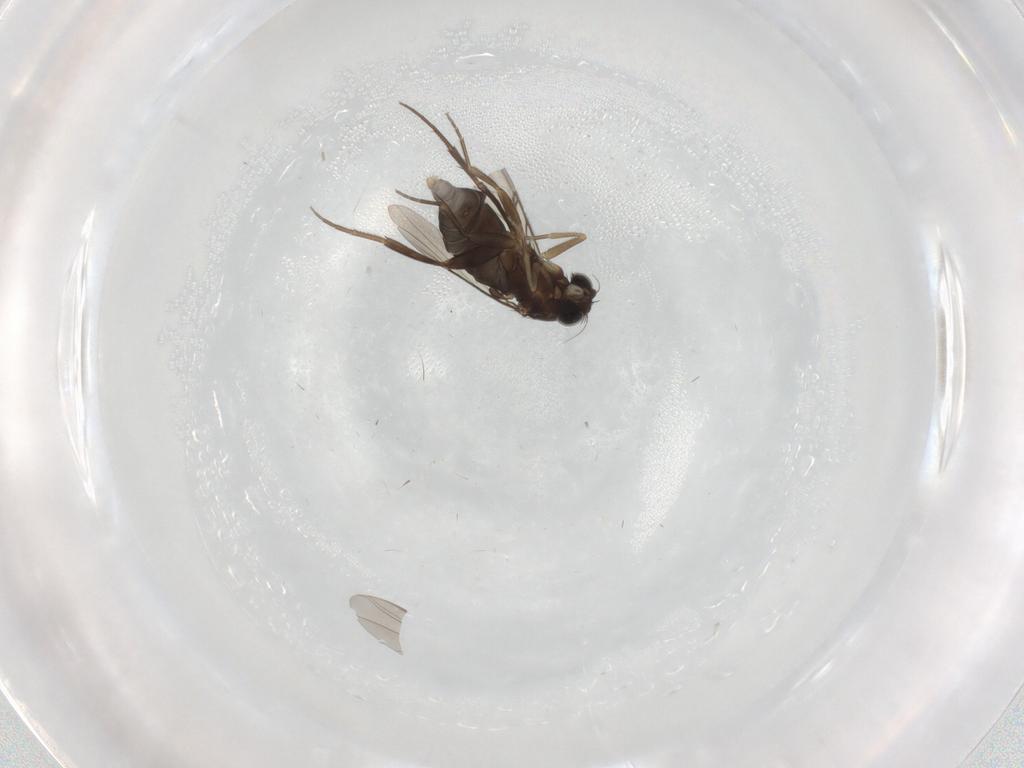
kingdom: Animalia
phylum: Arthropoda
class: Insecta
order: Diptera
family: Phoridae
